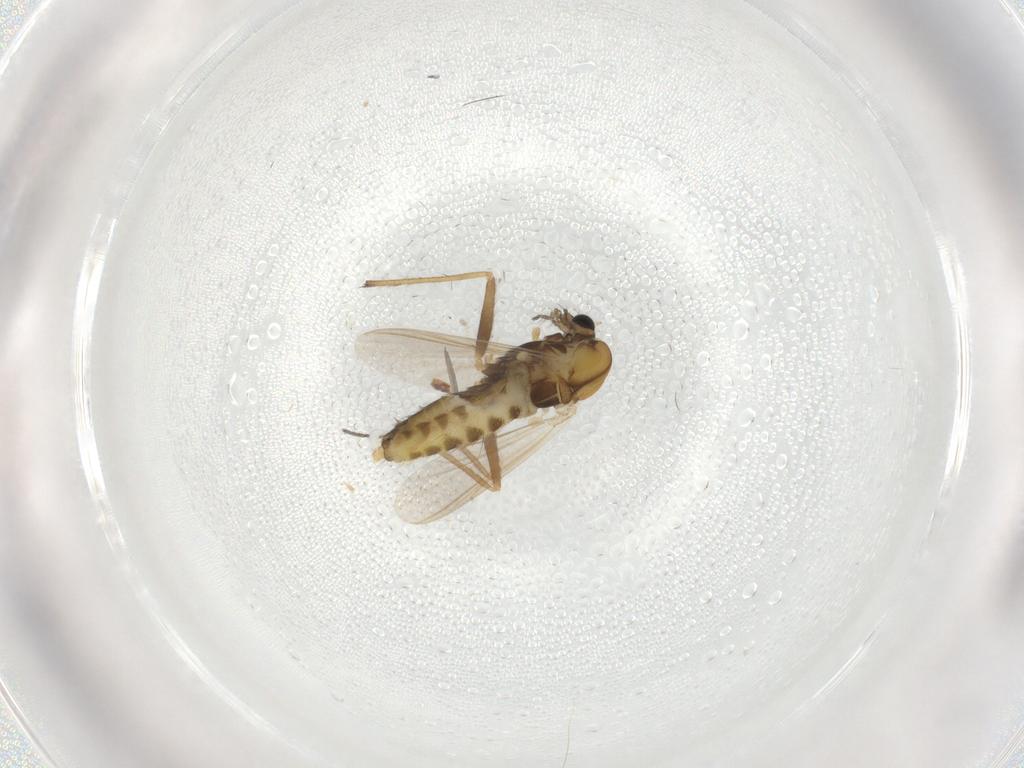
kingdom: Animalia
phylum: Arthropoda
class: Insecta
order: Diptera
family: Chironomidae
